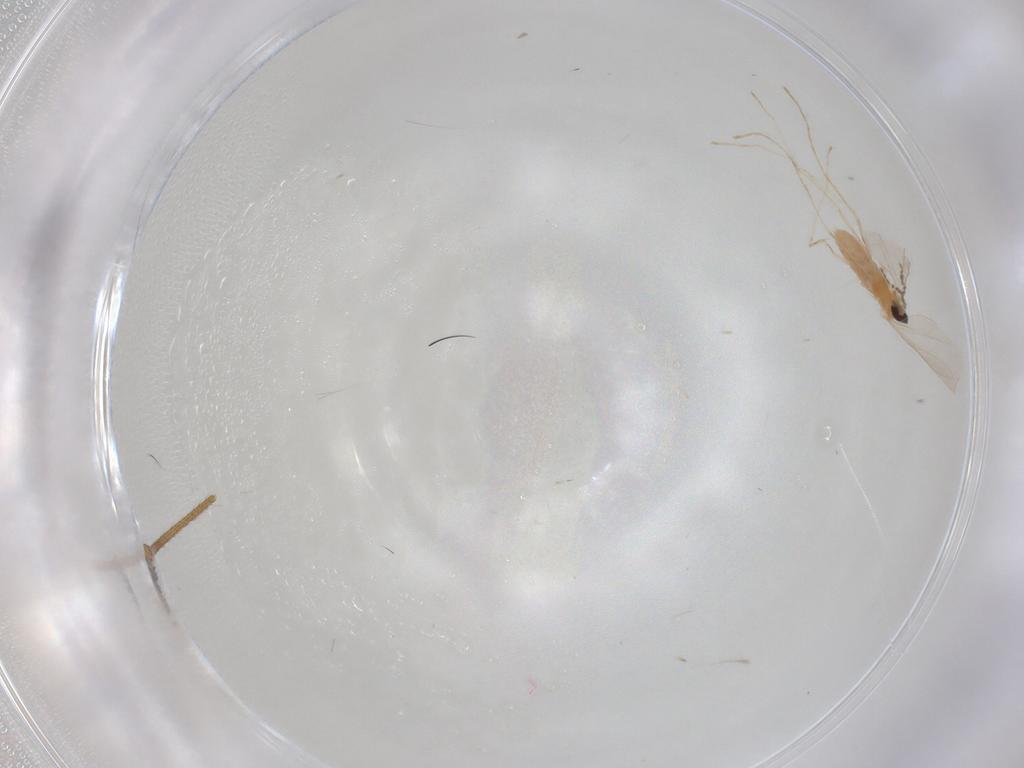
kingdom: Animalia
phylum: Arthropoda
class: Insecta
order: Diptera
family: Limoniidae
